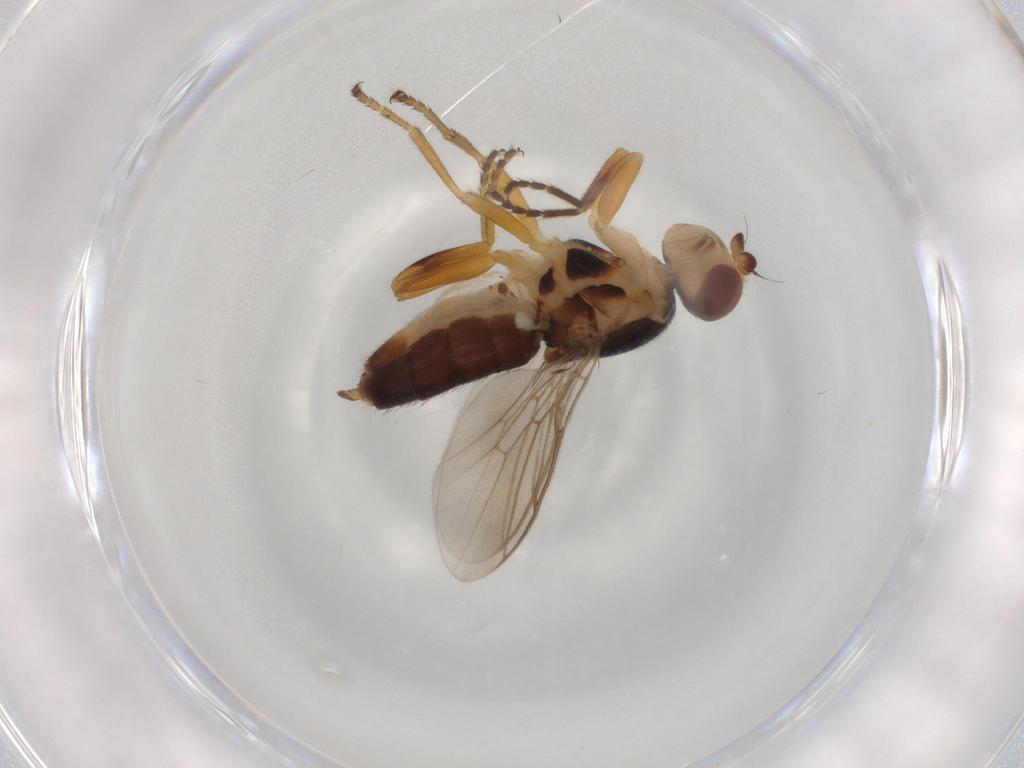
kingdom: Animalia
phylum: Arthropoda
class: Insecta
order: Diptera
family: Chloropidae
